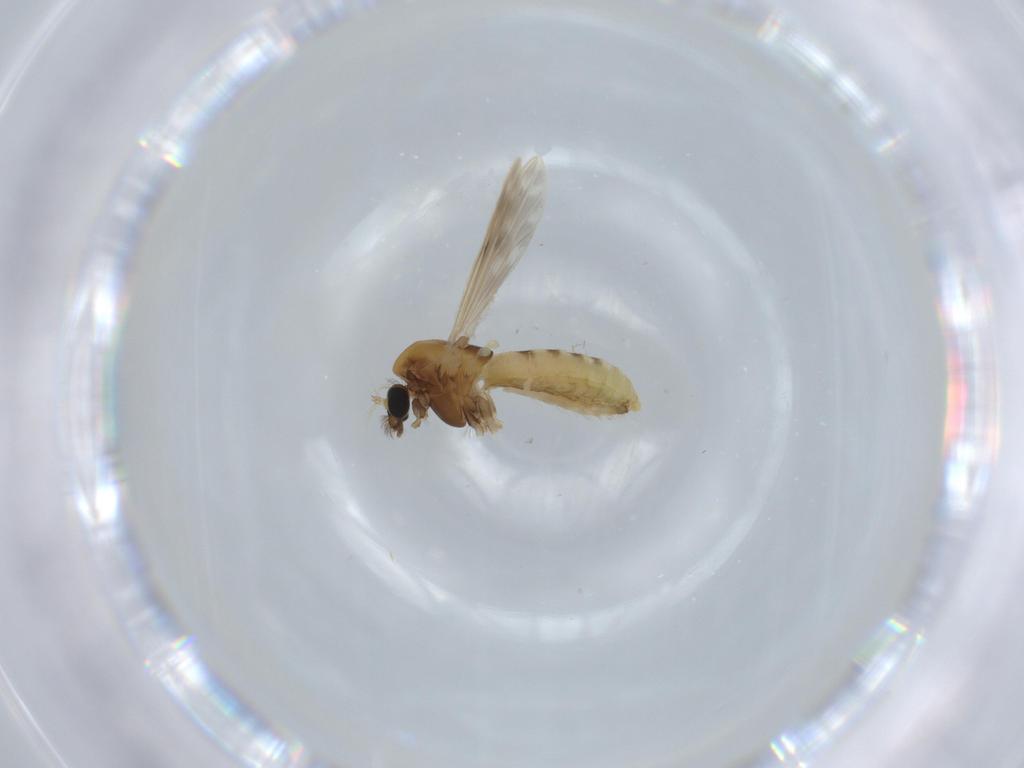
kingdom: Animalia
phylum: Arthropoda
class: Insecta
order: Diptera
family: Chironomidae
